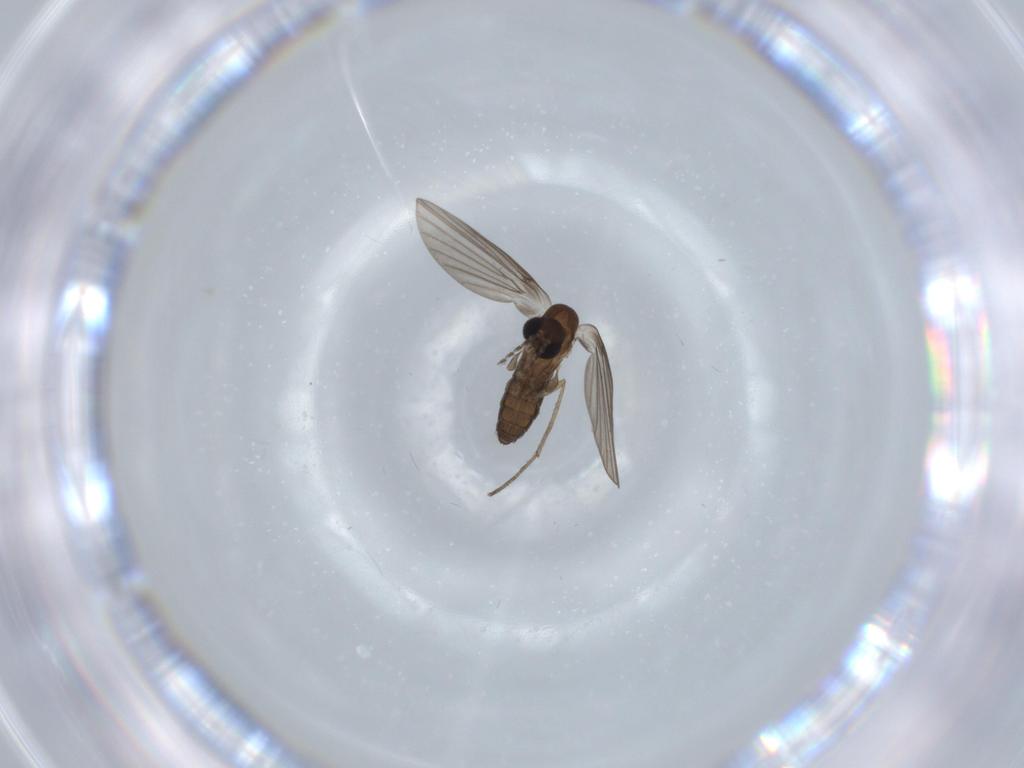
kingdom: Animalia
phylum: Arthropoda
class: Insecta
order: Diptera
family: Psychodidae
